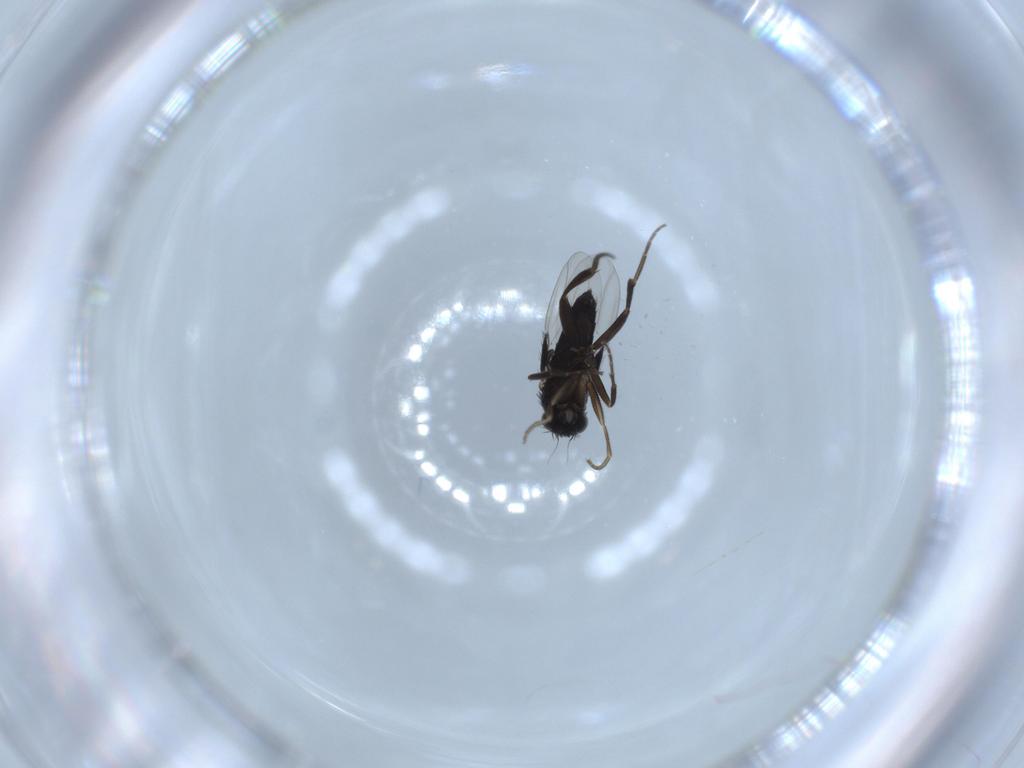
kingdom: Animalia
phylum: Arthropoda
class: Insecta
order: Diptera
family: Phoridae
